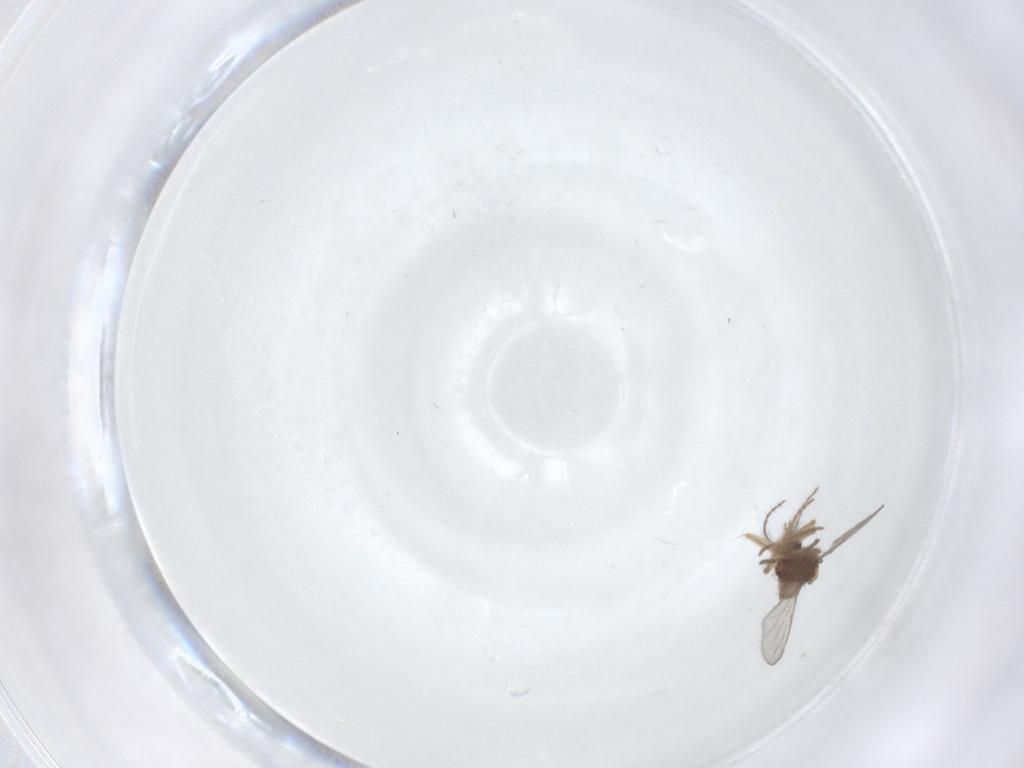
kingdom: Animalia
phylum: Arthropoda
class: Insecta
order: Diptera
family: Ceratopogonidae
